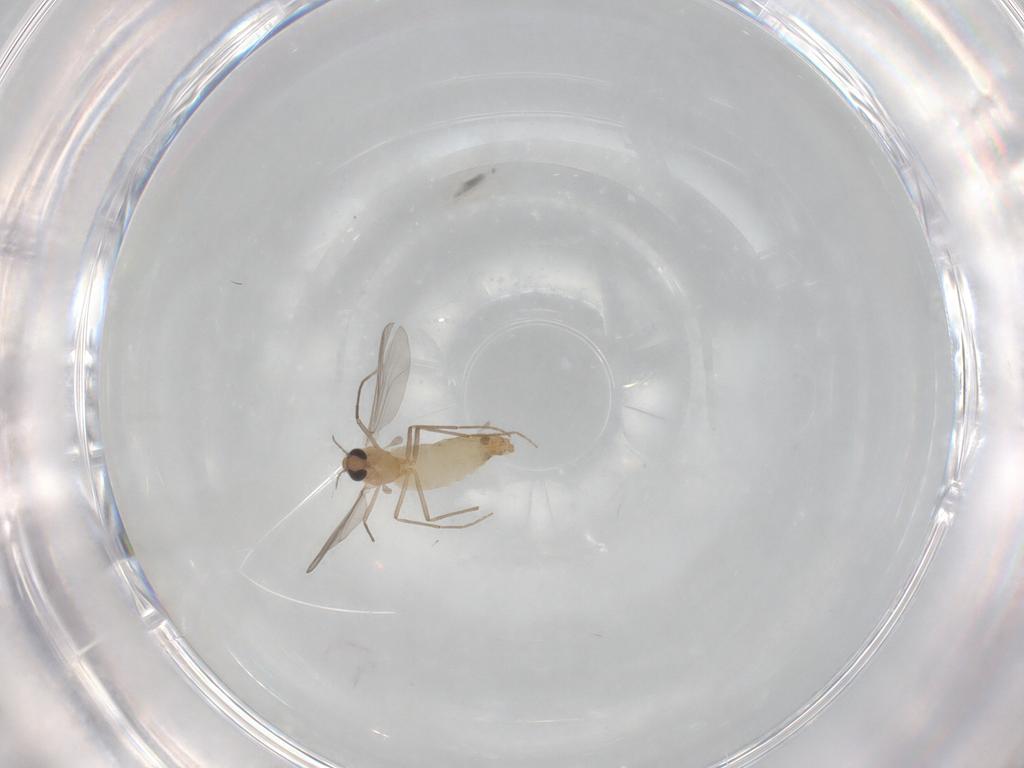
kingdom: Animalia
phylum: Arthropoda
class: Insecta
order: Diptera
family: Chironomidae
